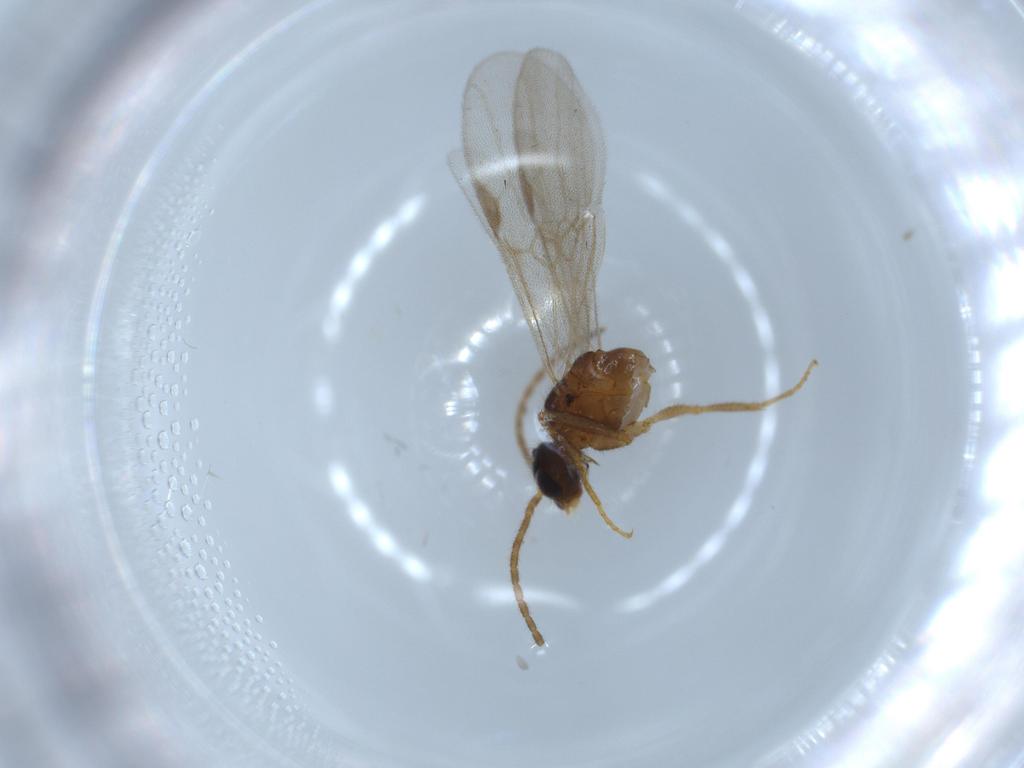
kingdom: Animalia
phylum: Arthropoda
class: Insecta
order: Hymenoptera
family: Formicidae
